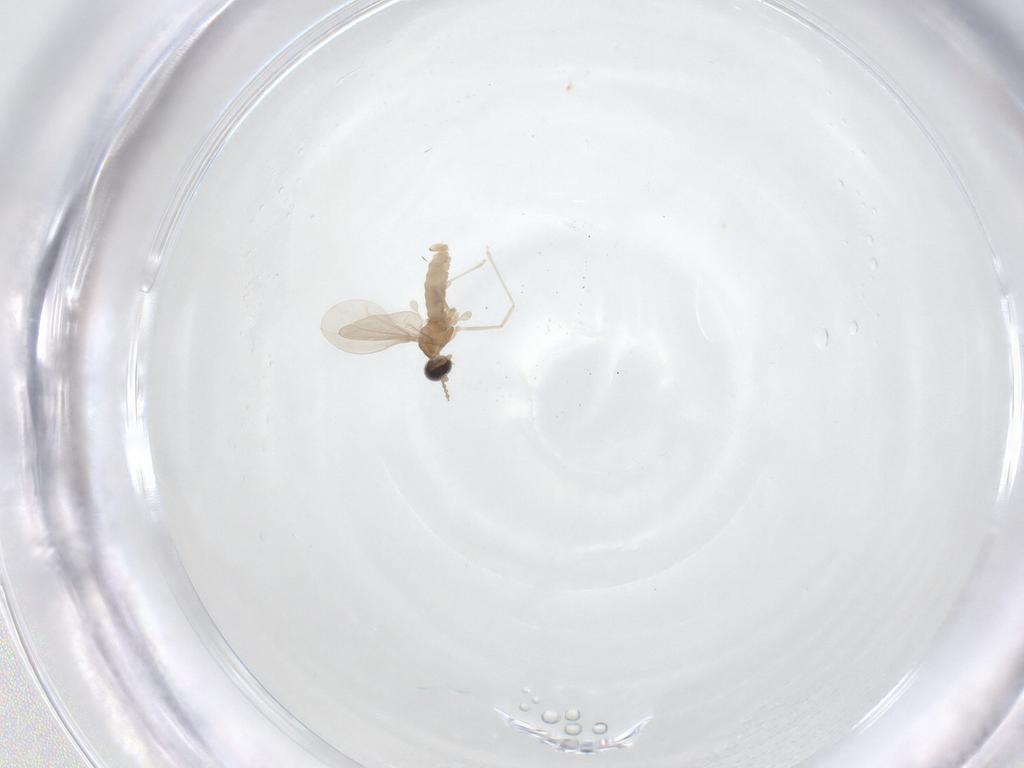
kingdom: Animalia
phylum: Arthropoda
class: Insecta
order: Diptera
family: Cecidomyiidae
